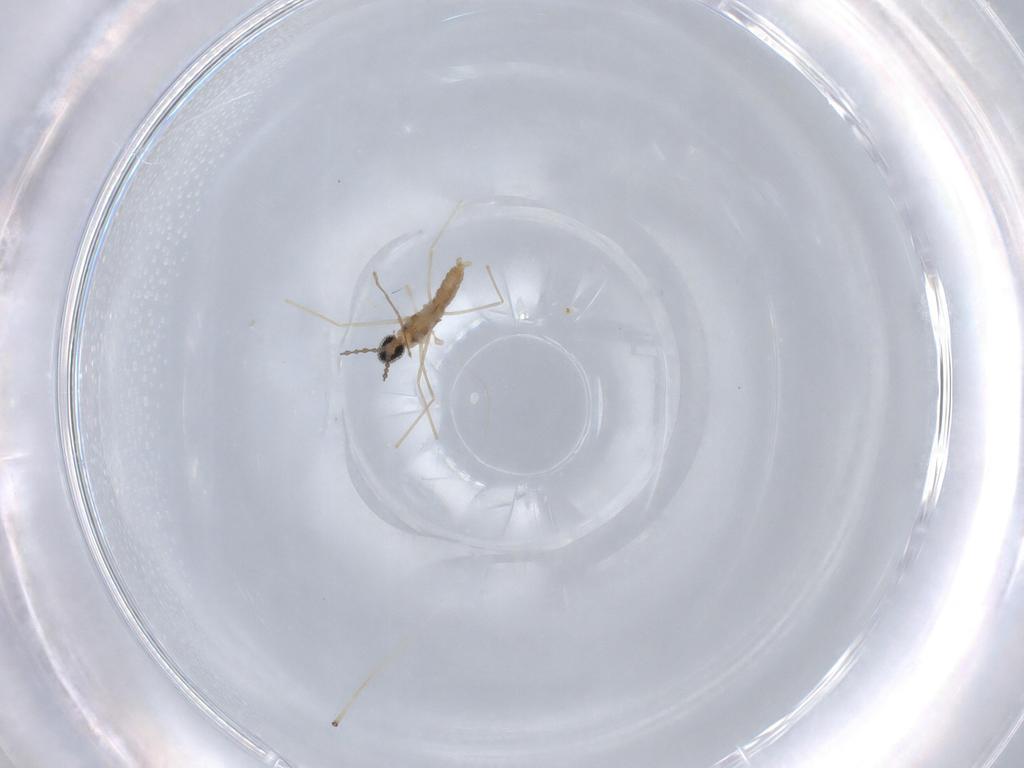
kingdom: Animalia
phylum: Arthropoda
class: Insecta
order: Diptera
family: Cecidomyiidae
